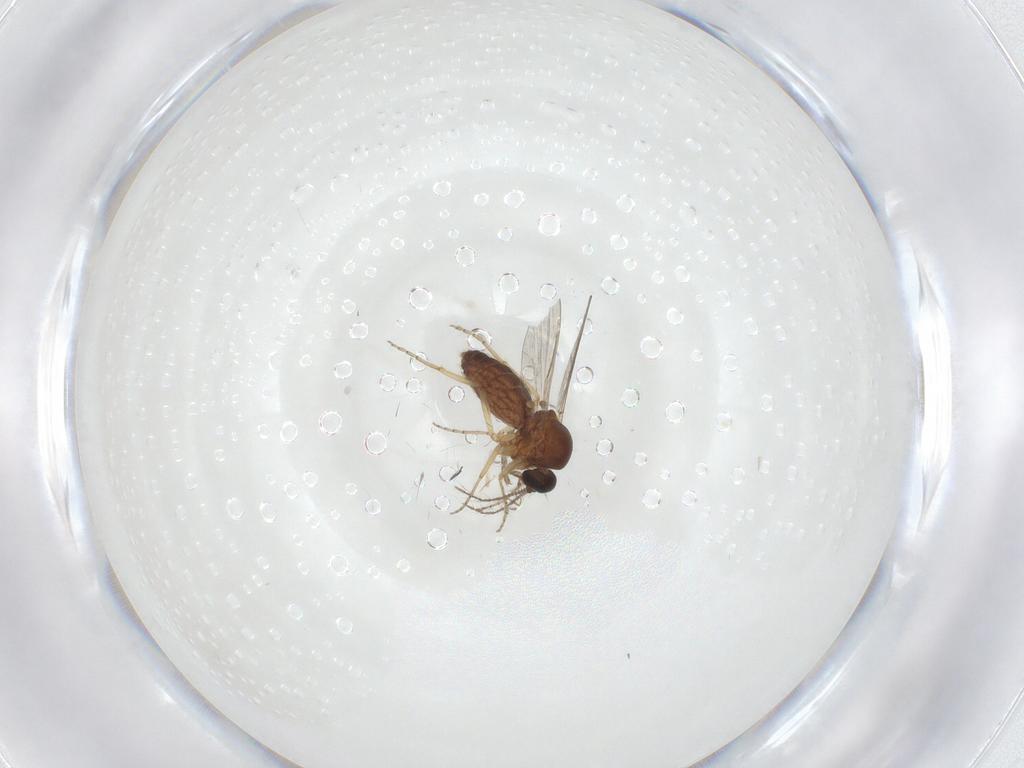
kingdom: Animalia
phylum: Arthropoda
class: Insecta
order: Diptera
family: Ceratopogonidae
